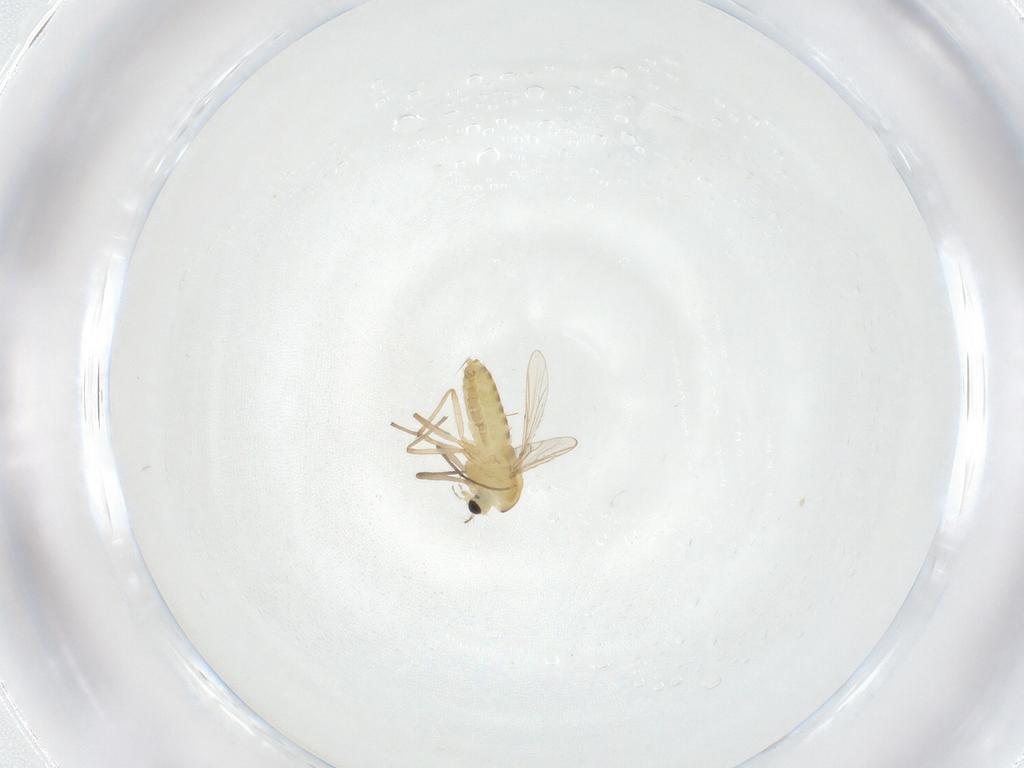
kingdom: Animalia
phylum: Arthropoda
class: Insecta
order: Diptera
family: Chironomidae
